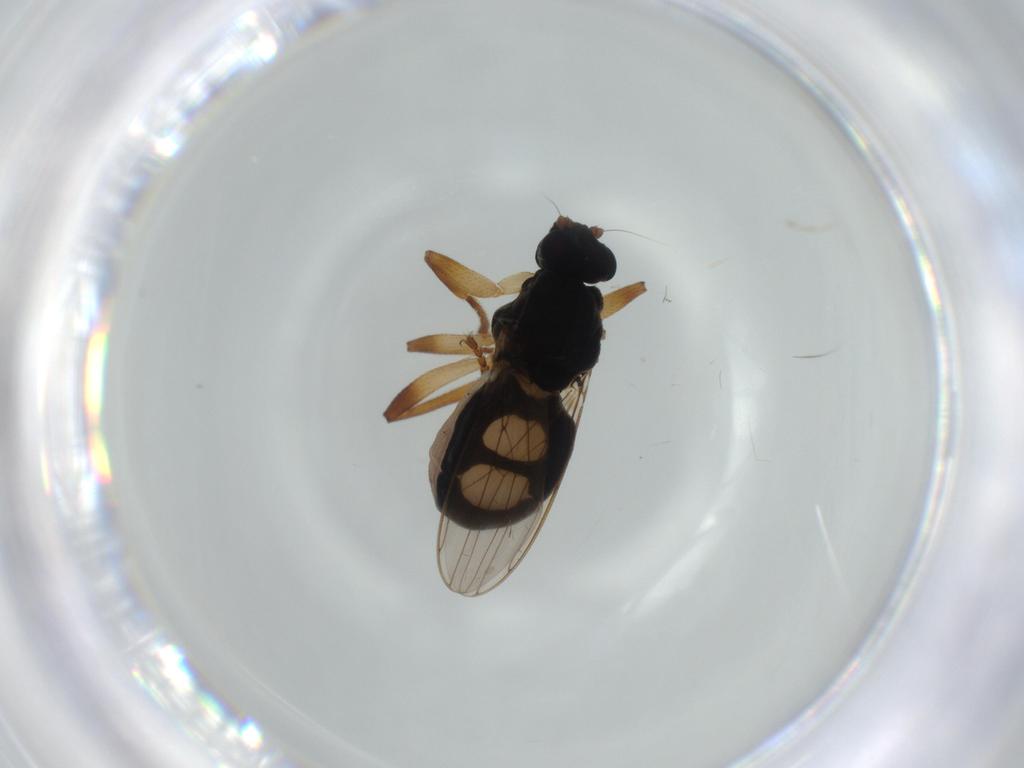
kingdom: Animalia
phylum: Arthropoda
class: Insecta
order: Diptera
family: Sphaeroceridae
